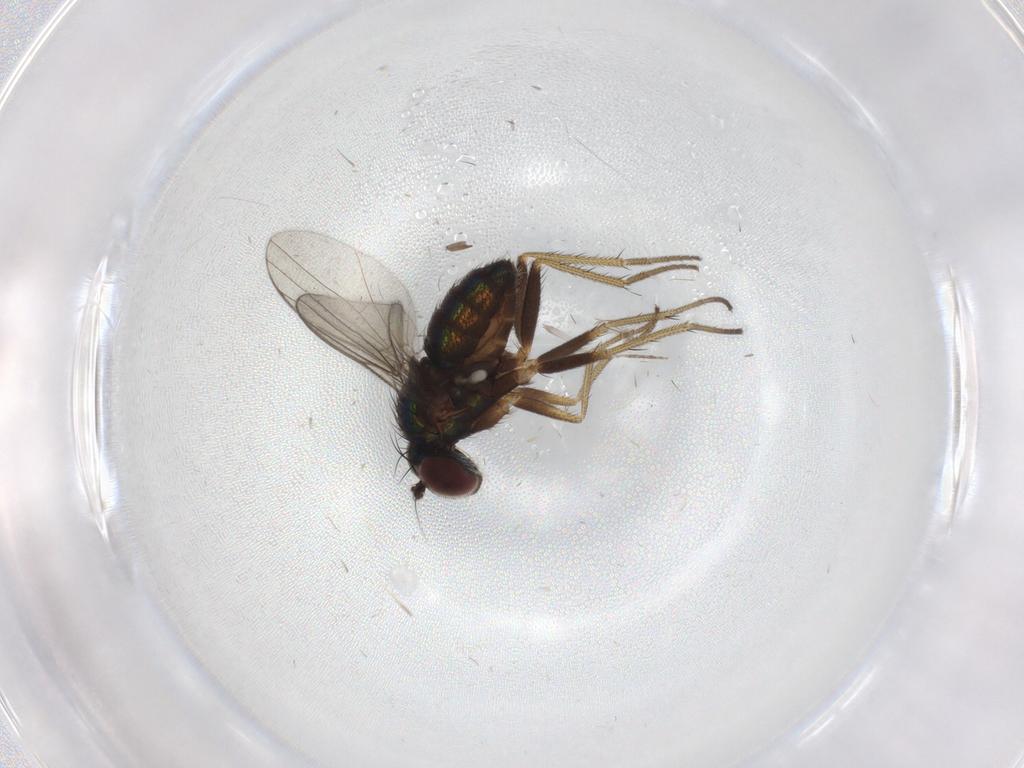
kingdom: Animalia
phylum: Arthropoda
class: Insecta
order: Diptera
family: Dolichopodidae
